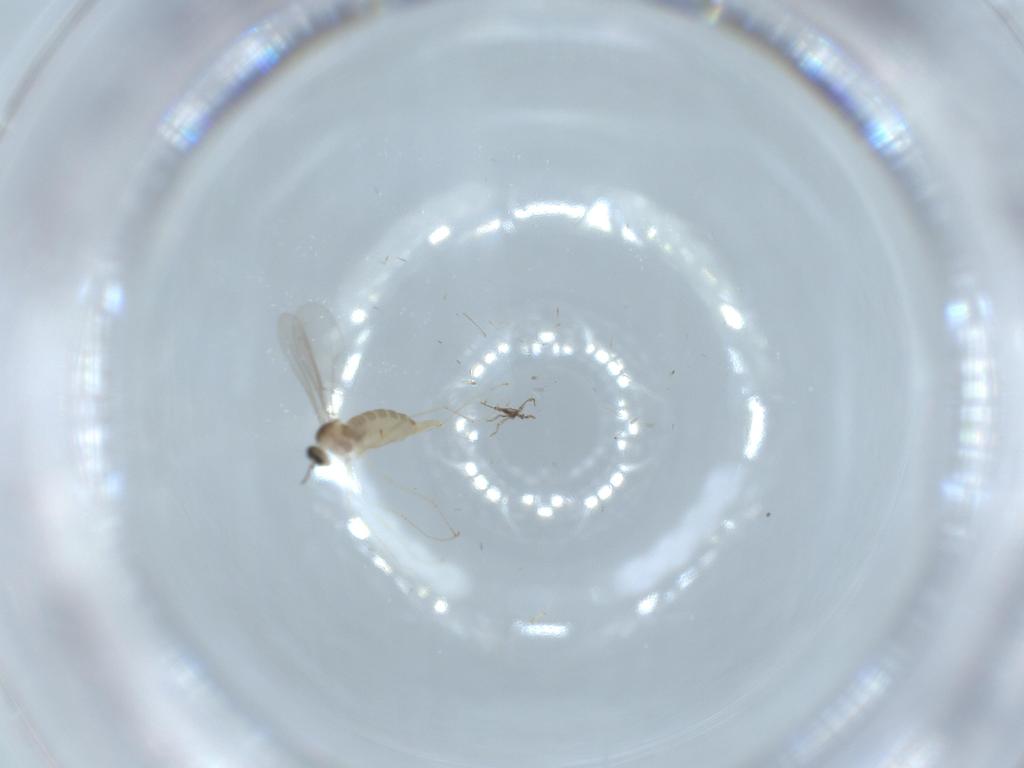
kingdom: Animalia
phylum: Arthropoda
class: Insecta
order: Diptera
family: Cecidomyiidae
